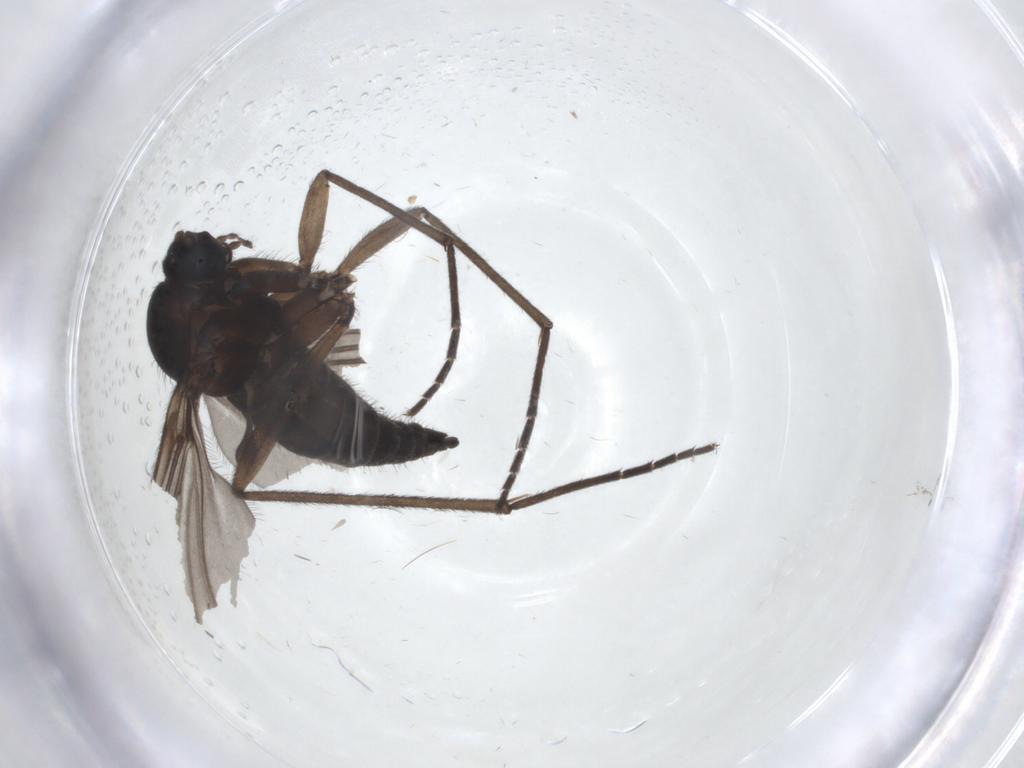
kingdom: Animalia
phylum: Arthropoda
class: Insecta
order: Diptera
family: Sciaridae
